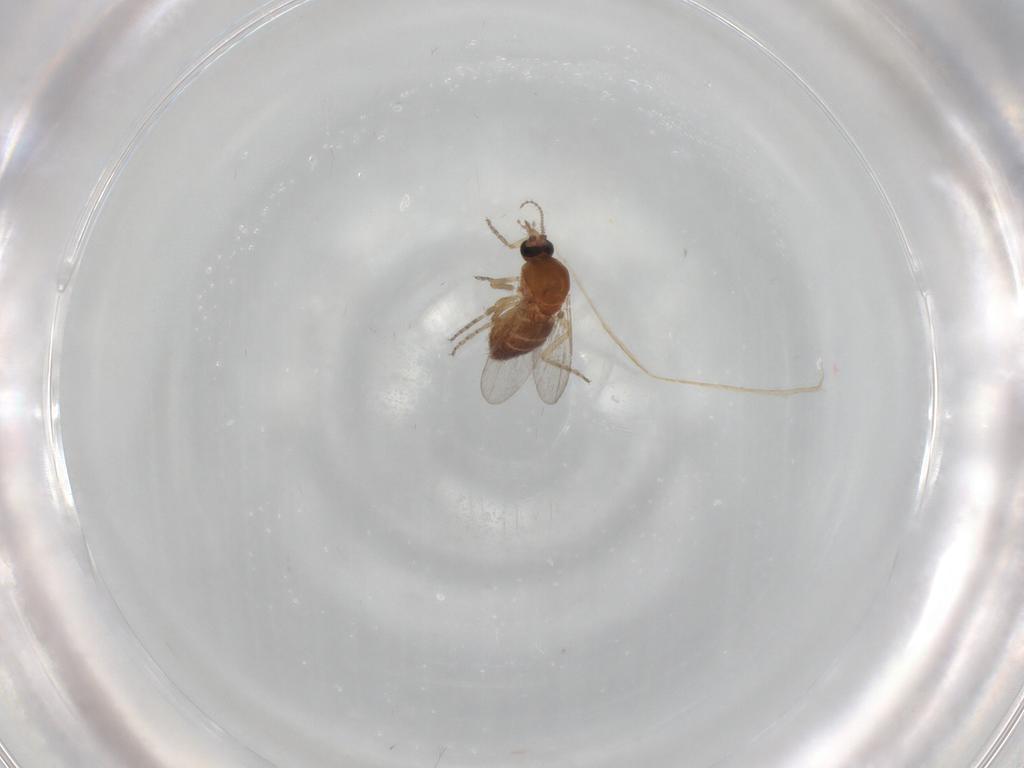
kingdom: Animalia
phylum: Arthropoda
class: Insecta
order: Diptera
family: Ceratopogonidae
